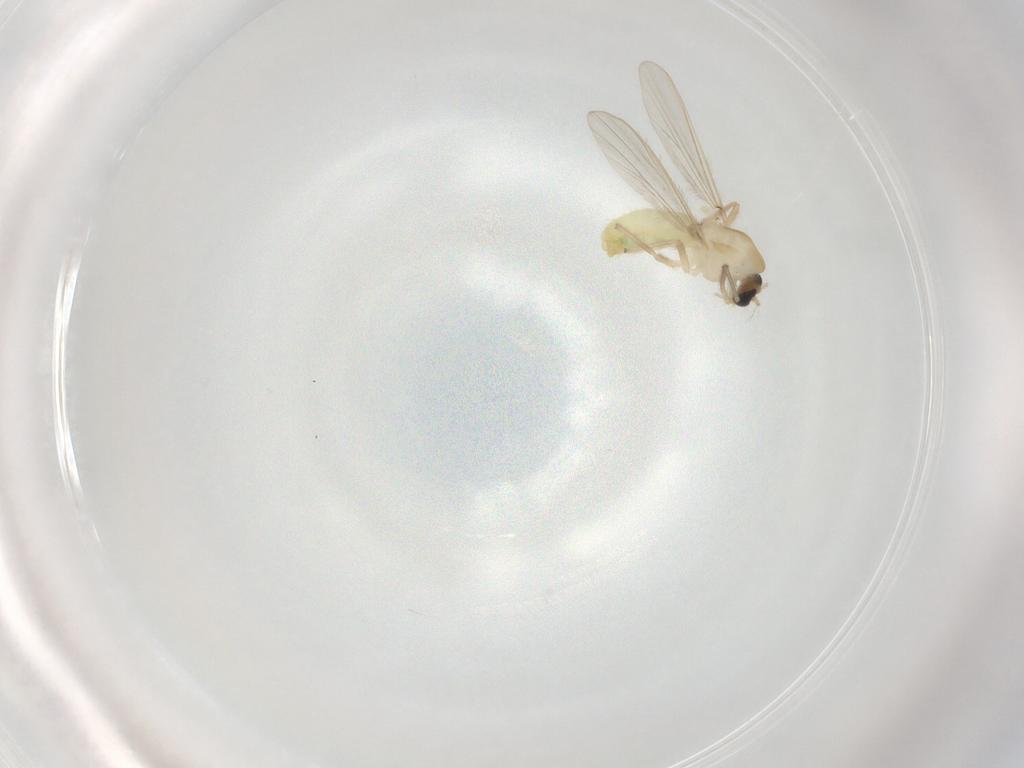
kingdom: Animalia
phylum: Arthropoda
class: Insecta
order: Diptera
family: Chironomidae
